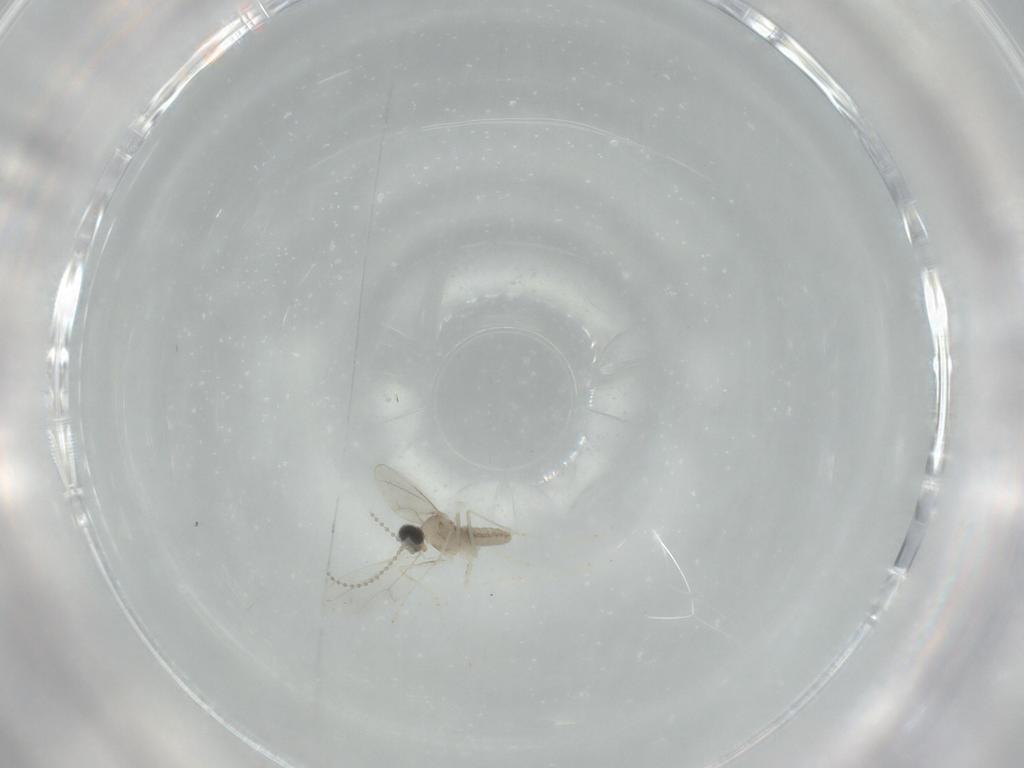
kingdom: Animalia
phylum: Arthropoda
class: Insecta
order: Diptera
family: Cecidomyiidae
